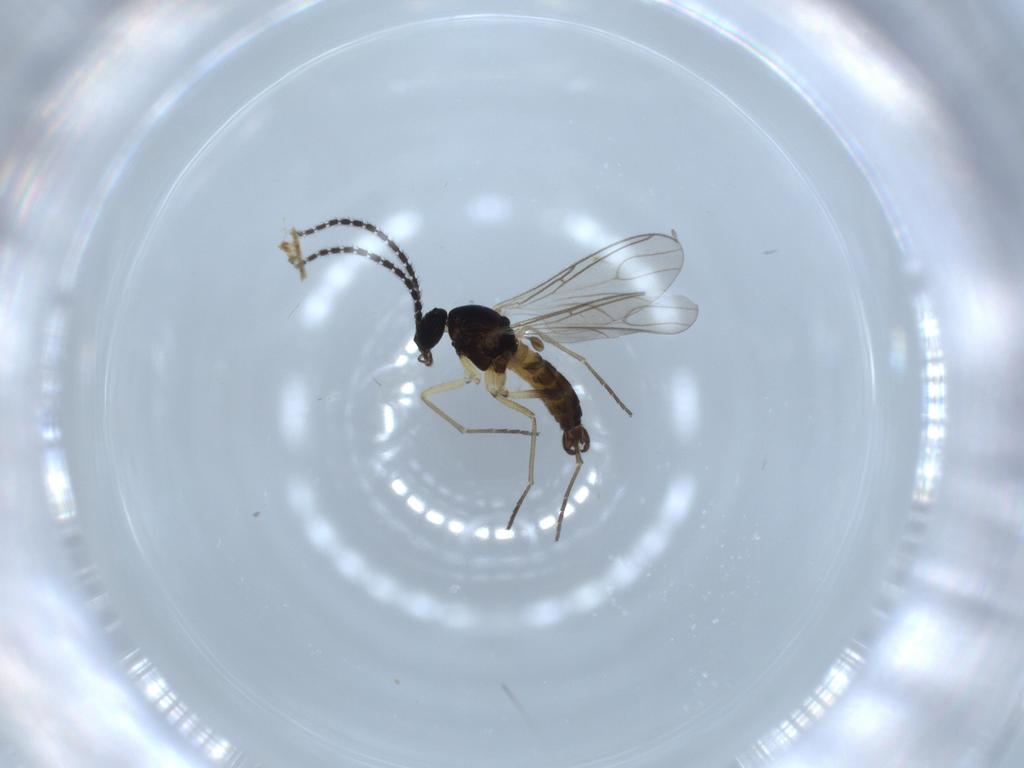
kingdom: Animalia
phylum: Arthropoda
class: Insecta
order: Diptera
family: Sciaridae
